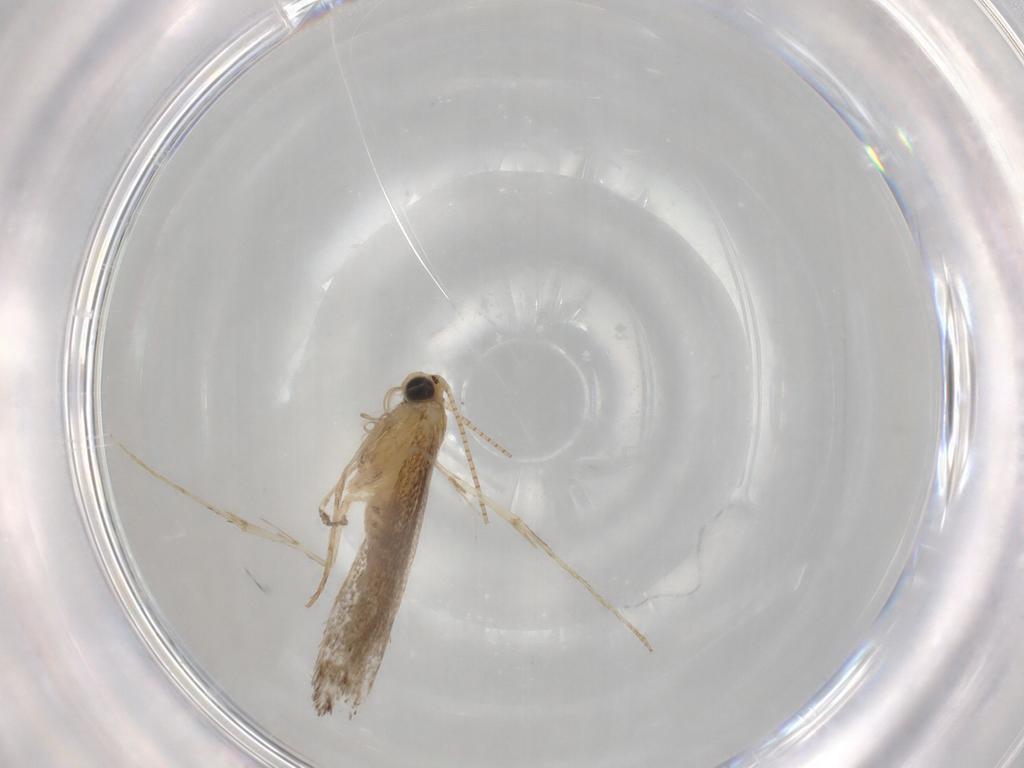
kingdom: Animalia
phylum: Arthropoda
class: Insecta
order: Lepidoptera
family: Gracillariidae
